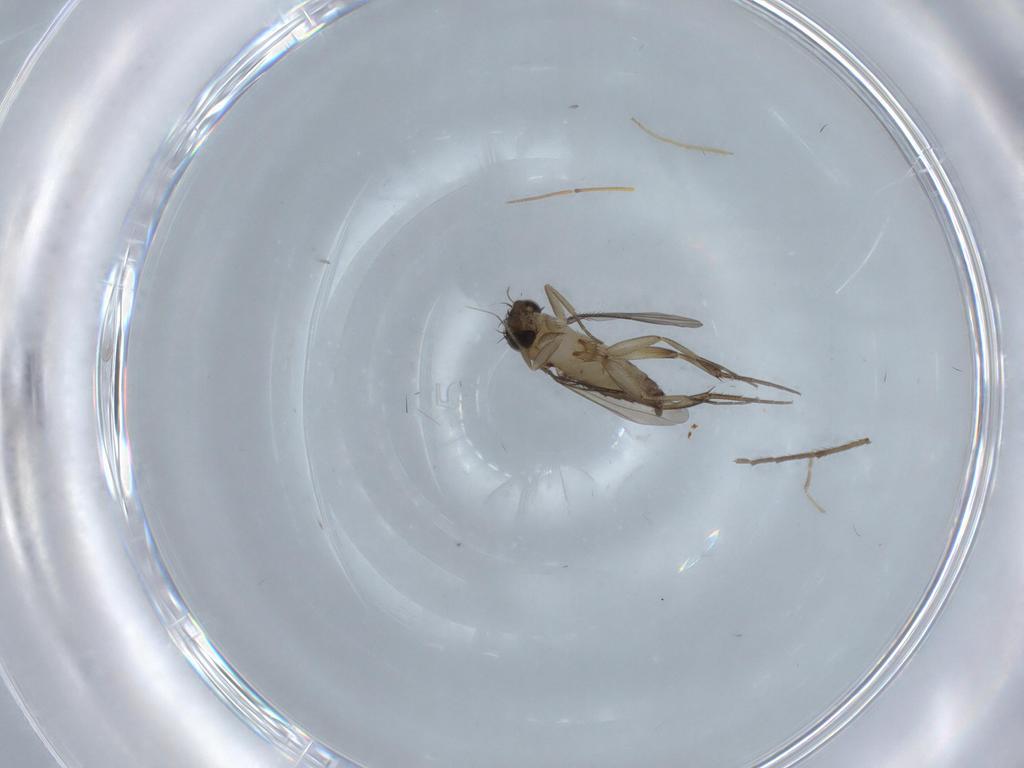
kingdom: Animalia
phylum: Arthropoda
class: Insecta
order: Diptera
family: Phoridae
